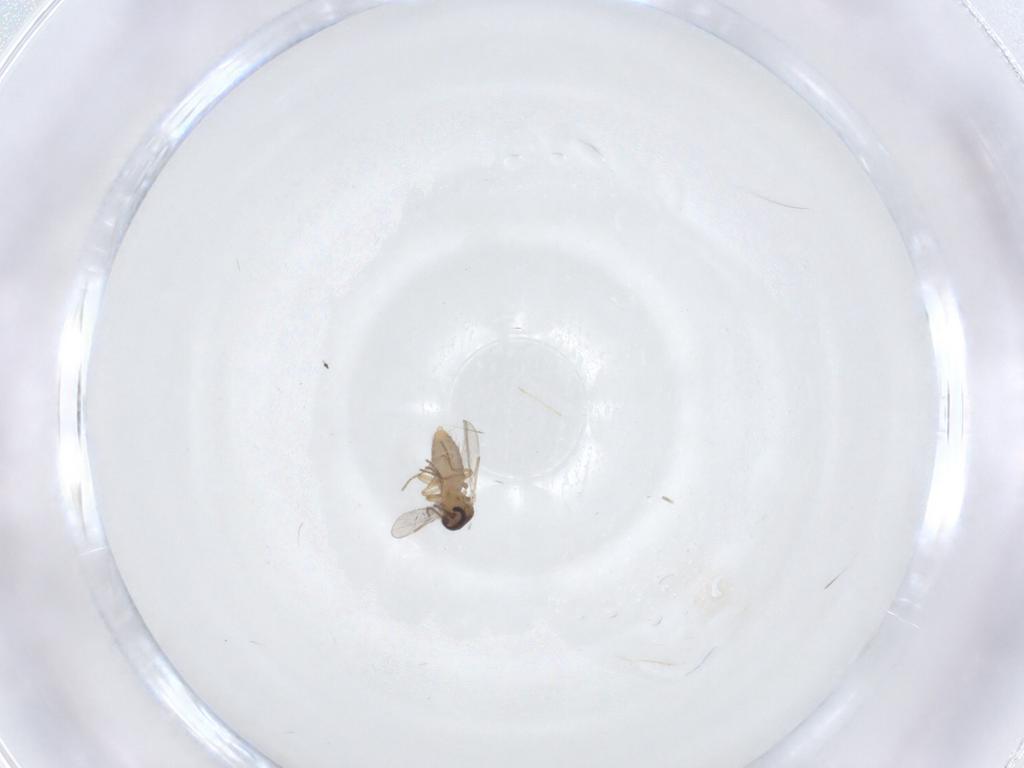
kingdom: Animalia
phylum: Arthropoda
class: Insecta
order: Diptera
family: Ceratopogonidae
